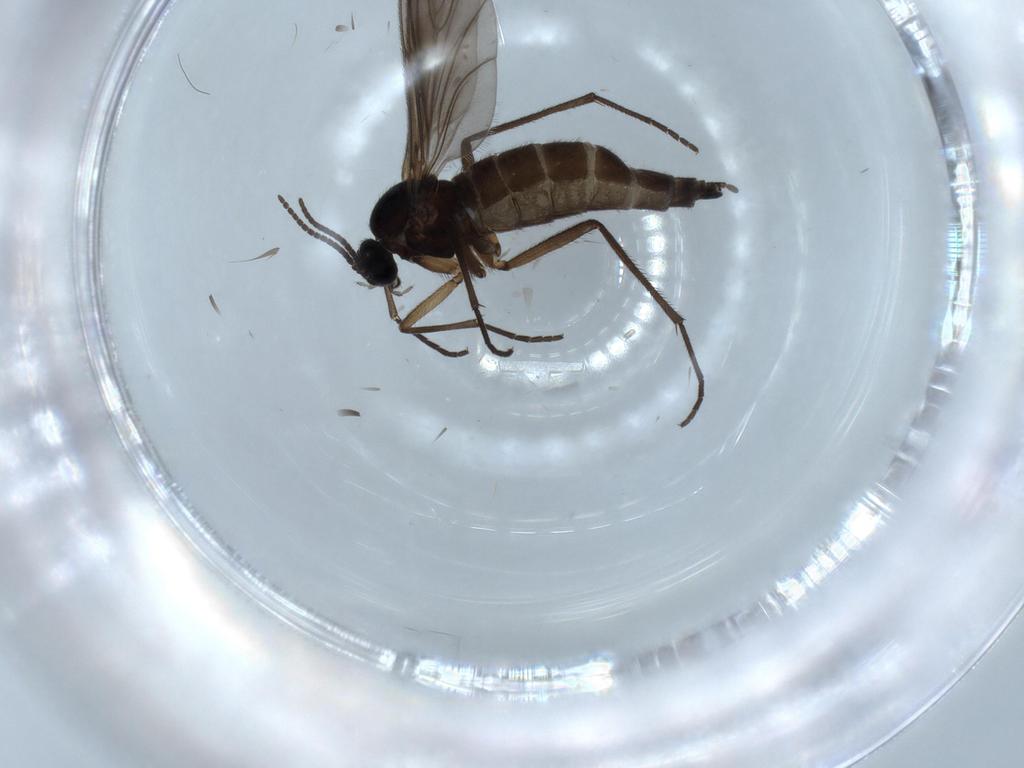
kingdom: Animalia
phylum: Arthropoda
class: Insecta
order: Diptera
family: Sciaridae
